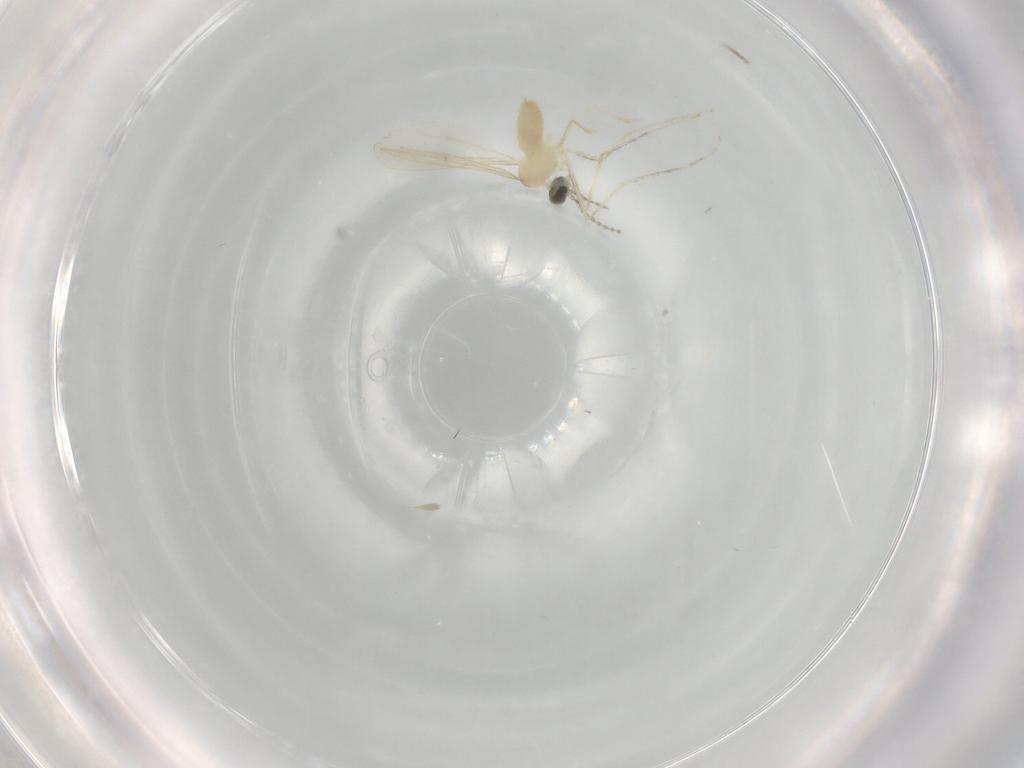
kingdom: Animalia
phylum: Arthropoda
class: Insecta
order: Diptera
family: Cecidomyiidae
